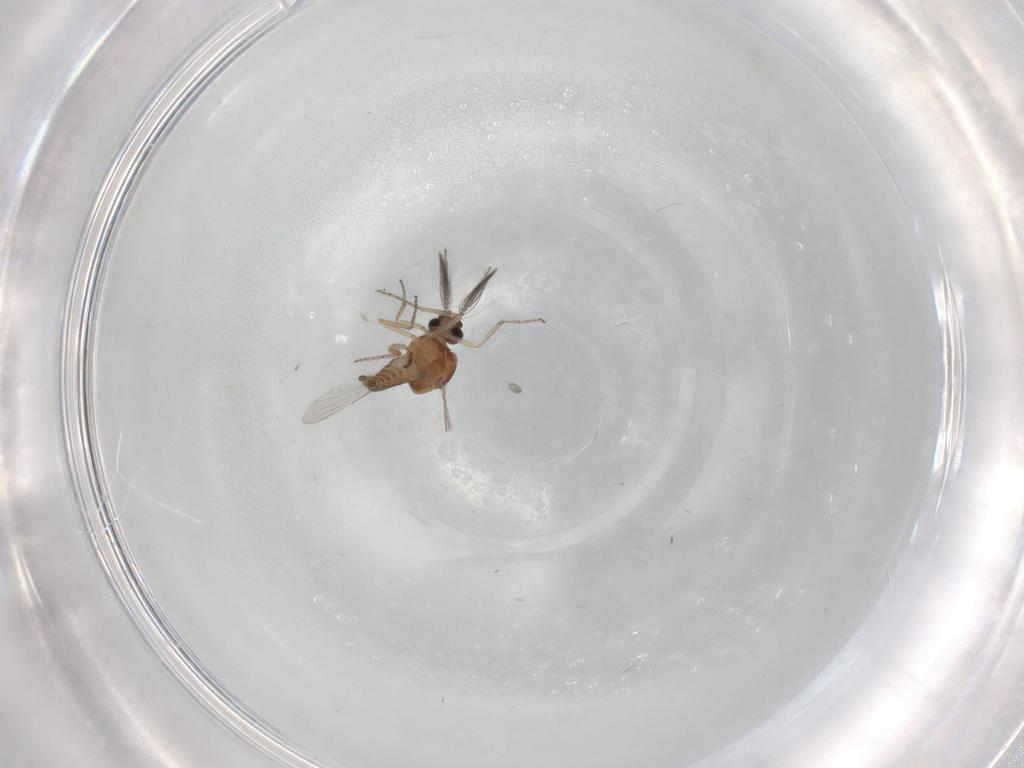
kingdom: Animalia
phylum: Arthropoda
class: Insecta
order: Diptera
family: Ceratopogonidae
